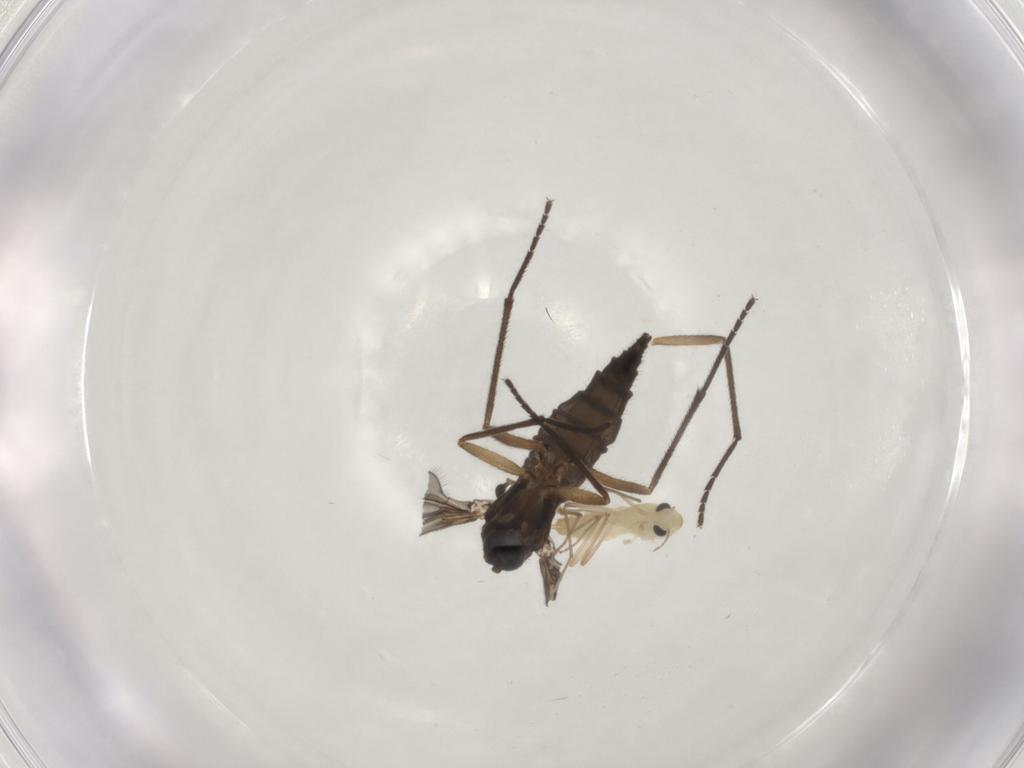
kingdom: Animalia
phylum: Arthropoda
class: Insecta
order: Diptera
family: Sciaridae
